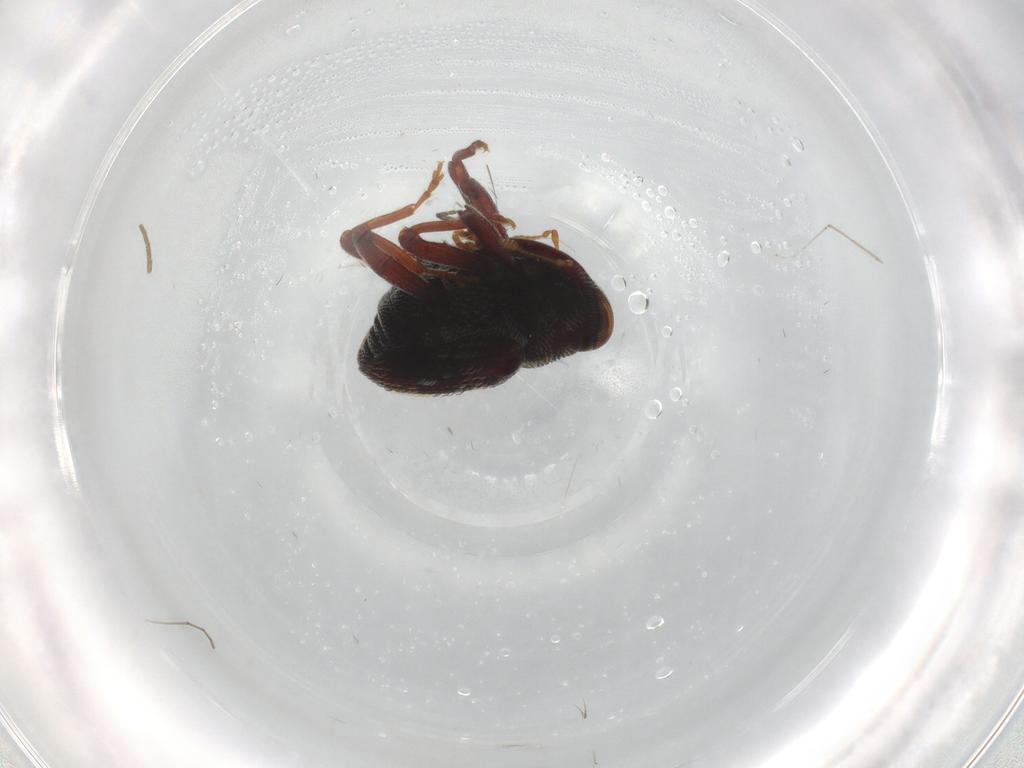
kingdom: Animalia
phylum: Arthropoda
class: Insecta
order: Coleoptera
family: Curculionidae
